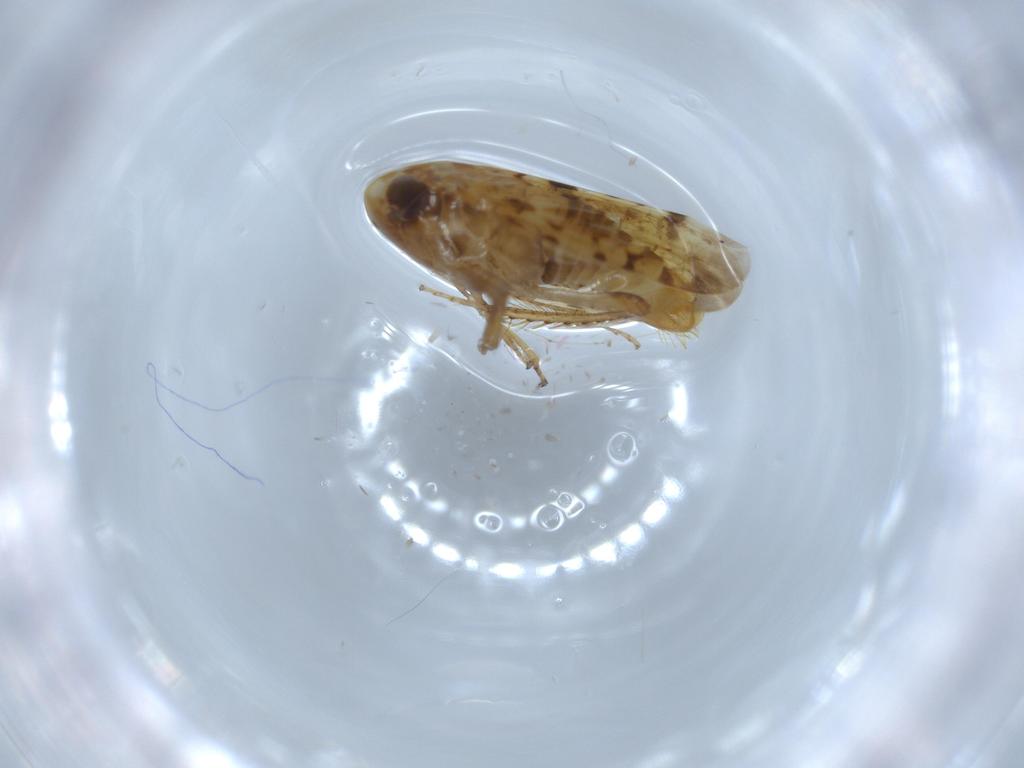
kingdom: Animalia
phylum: Arthropoda
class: Insecta
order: Hemiptera
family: Cicadellidae
